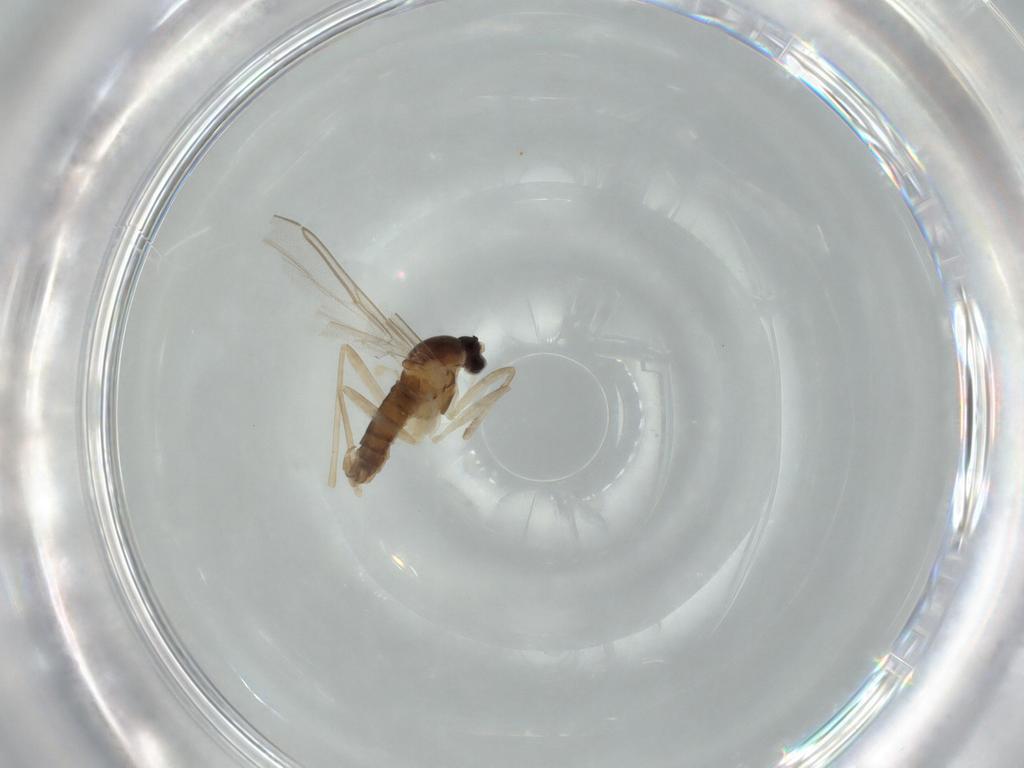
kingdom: Animalia
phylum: Arthropoda
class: Insecta
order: Diptera
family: Cecidomyiidae
